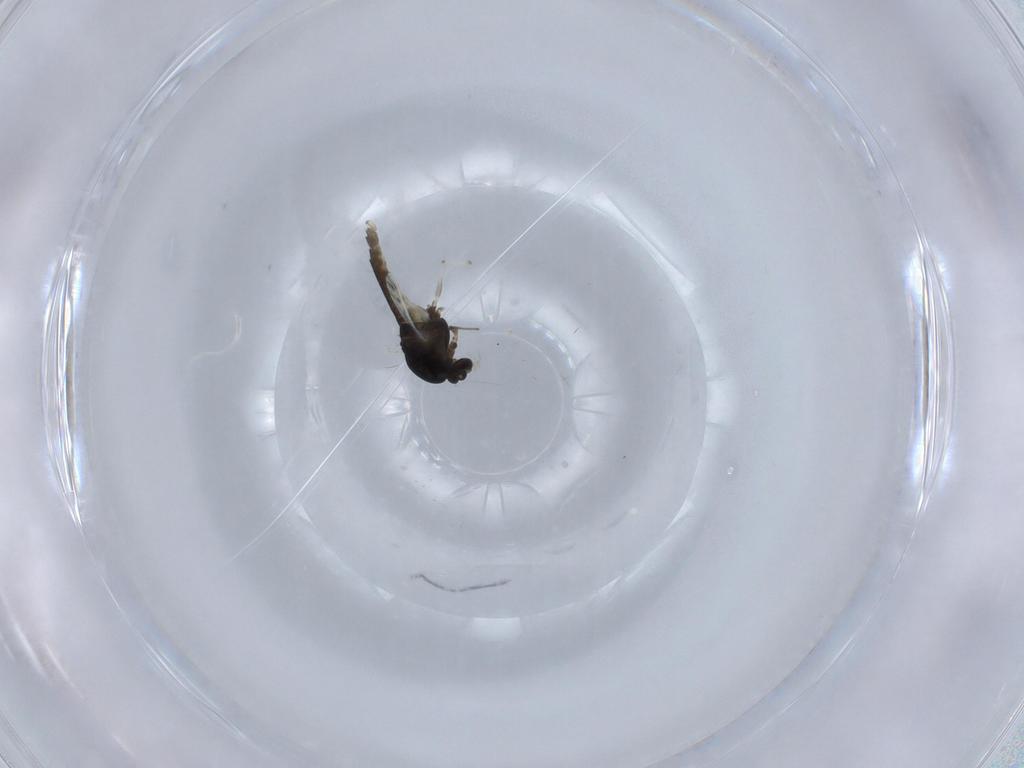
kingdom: Animalia
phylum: Arthropoda
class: Insecta
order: Diptera
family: Chironomidae
